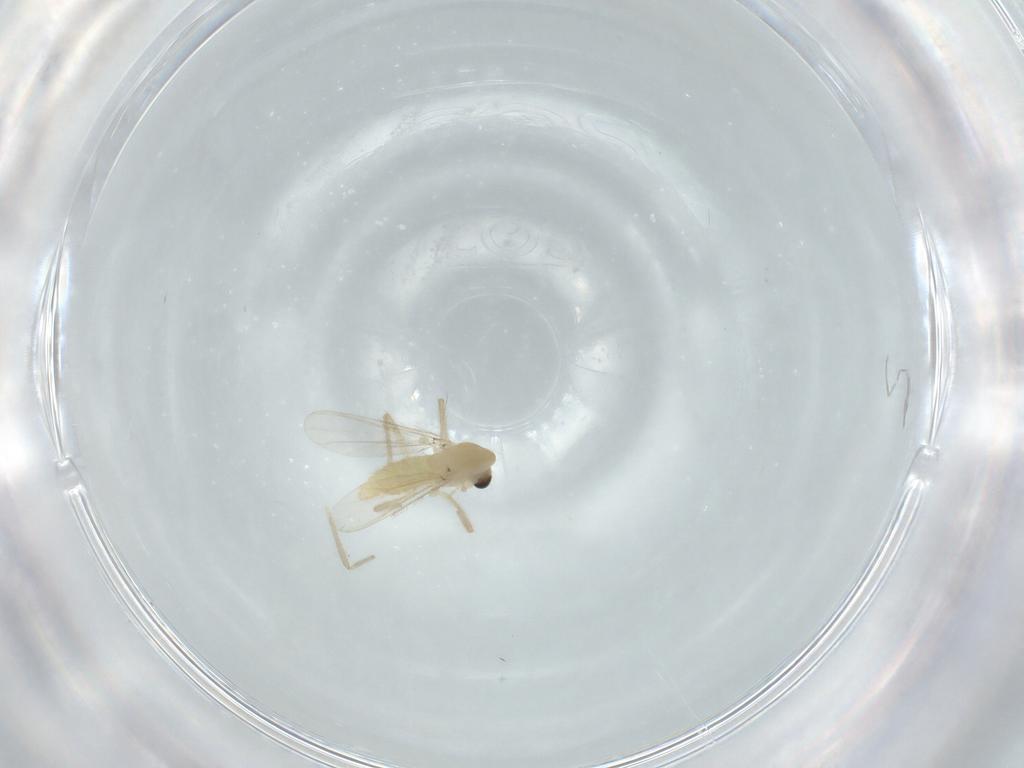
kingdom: Animalia
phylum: Arthropoda
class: Insecta
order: Diptera
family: Chironomidae
